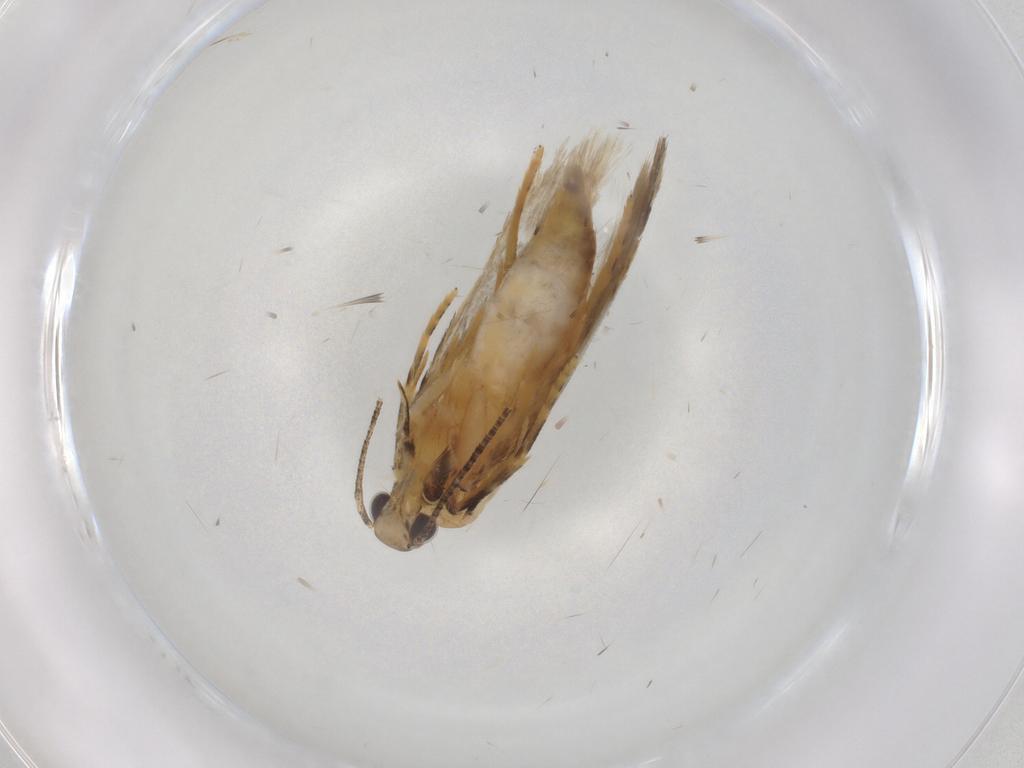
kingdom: Animalia
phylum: Arthropoda
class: Insecta
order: Lepidoptera
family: Autostichidae
